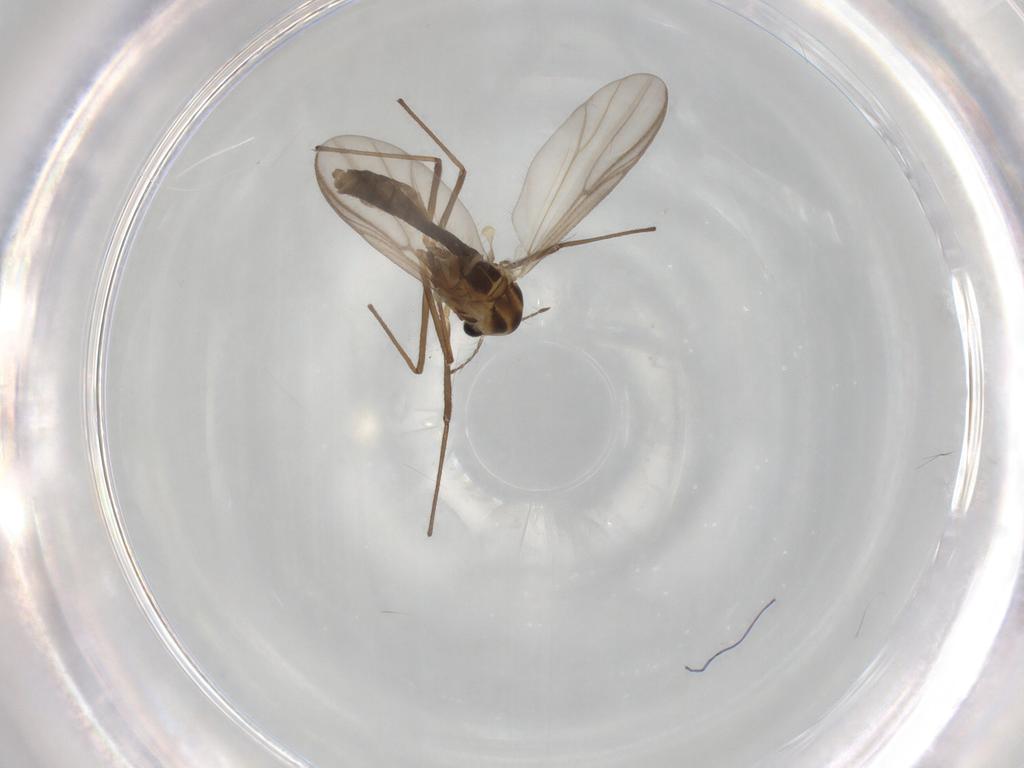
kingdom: Animalia
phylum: Arthropoda
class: Insecta
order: Diptera
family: Chironomidae
